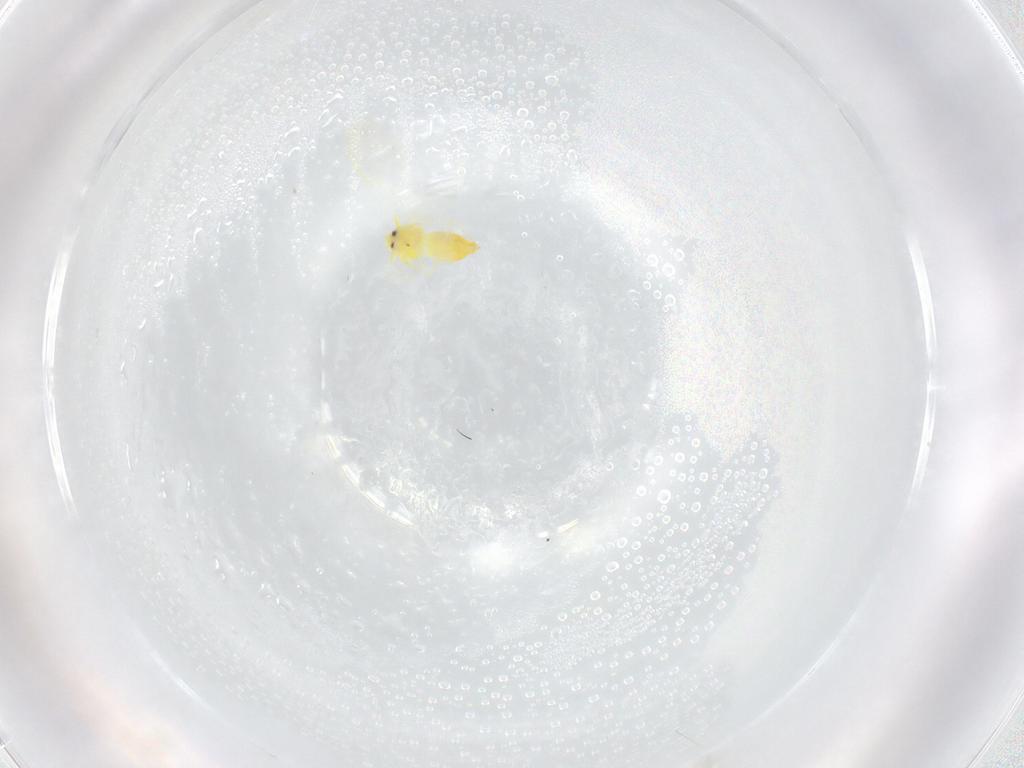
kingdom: Animalia
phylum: Arthropoda
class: Insecta
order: Hemiptera
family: Aleyrodidae
